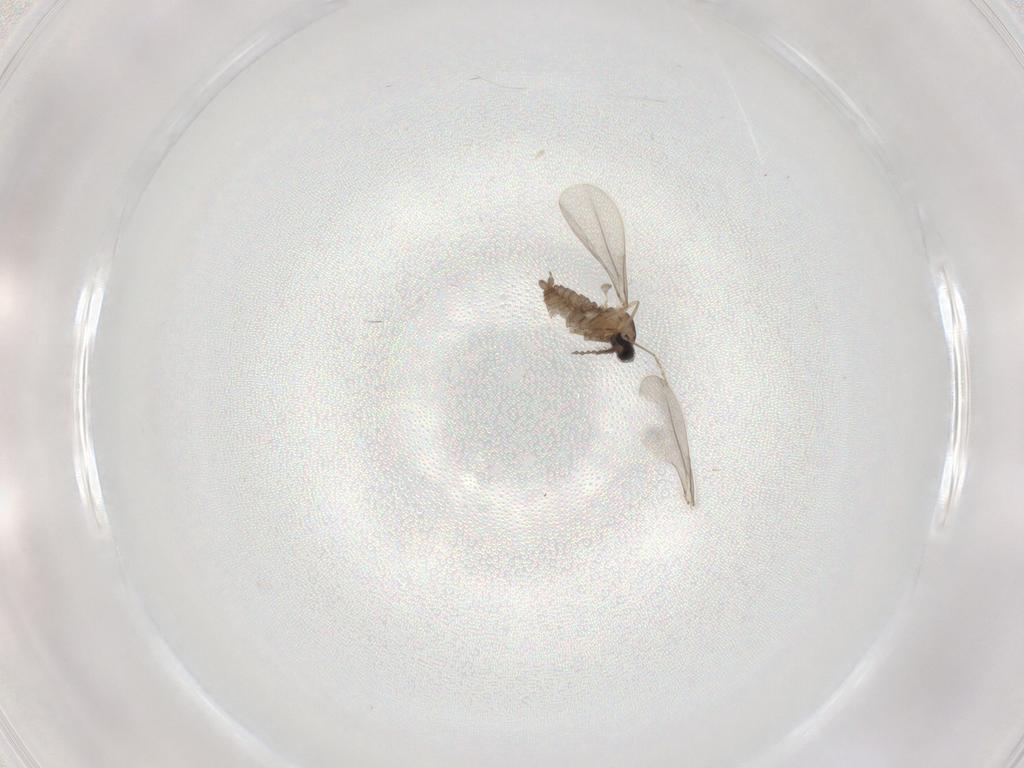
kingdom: Animalia
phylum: Arthropoda
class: Insecta
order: Diptera
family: Cecidomyiidae
